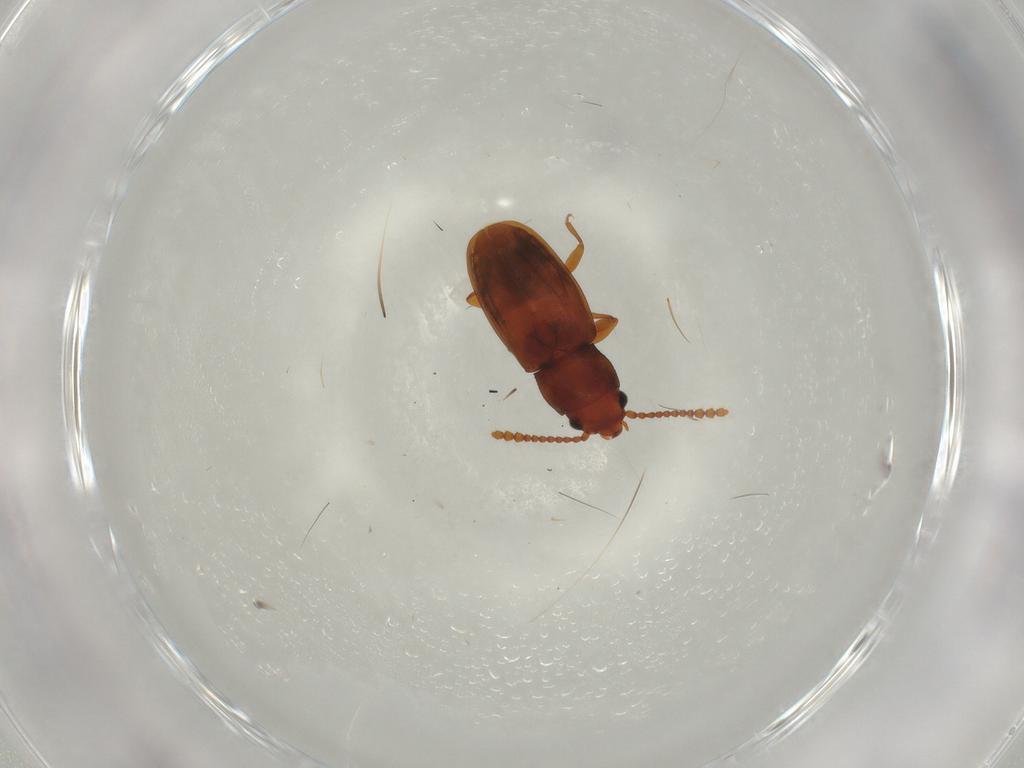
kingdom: Animalia
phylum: Arthropoda
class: Insecta
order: Coleoptera
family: Laemophloeidae
